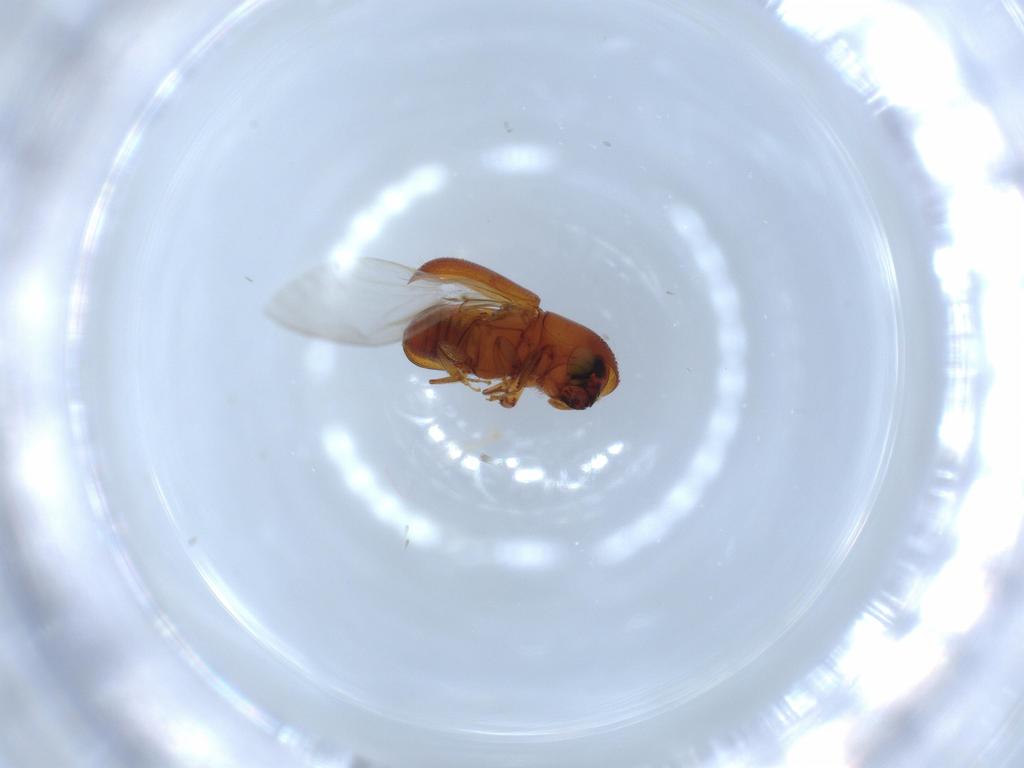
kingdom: Animalia
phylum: Arthropoda
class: Insecta
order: Coleoptera
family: Curculionidae
